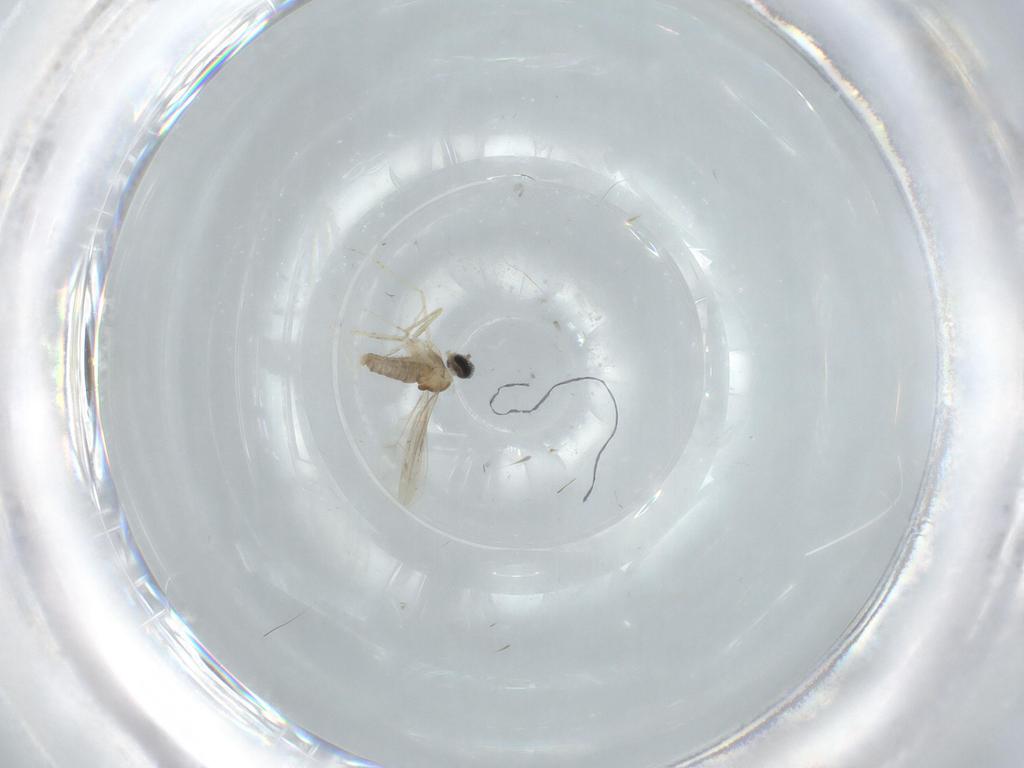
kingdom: Animalia
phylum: Arthropoda
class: Insecta
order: Diptera
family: Cecidomyiidae
